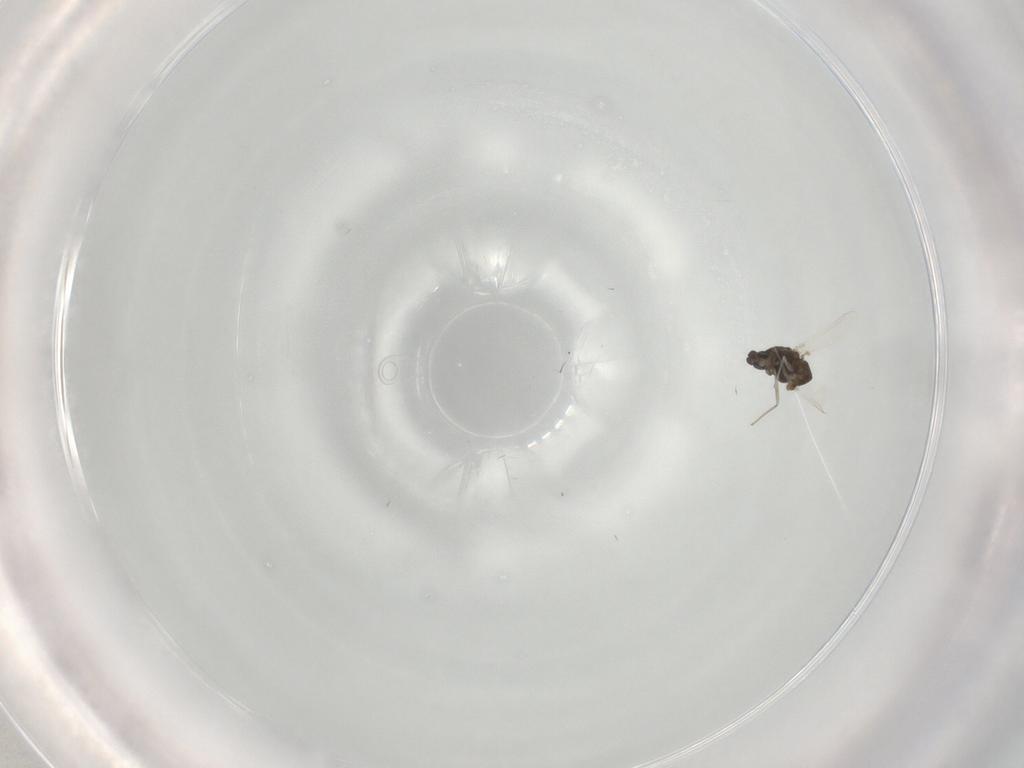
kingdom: Animalia
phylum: Arthropoda
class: Insecta
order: Diptera
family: Chironomidae
